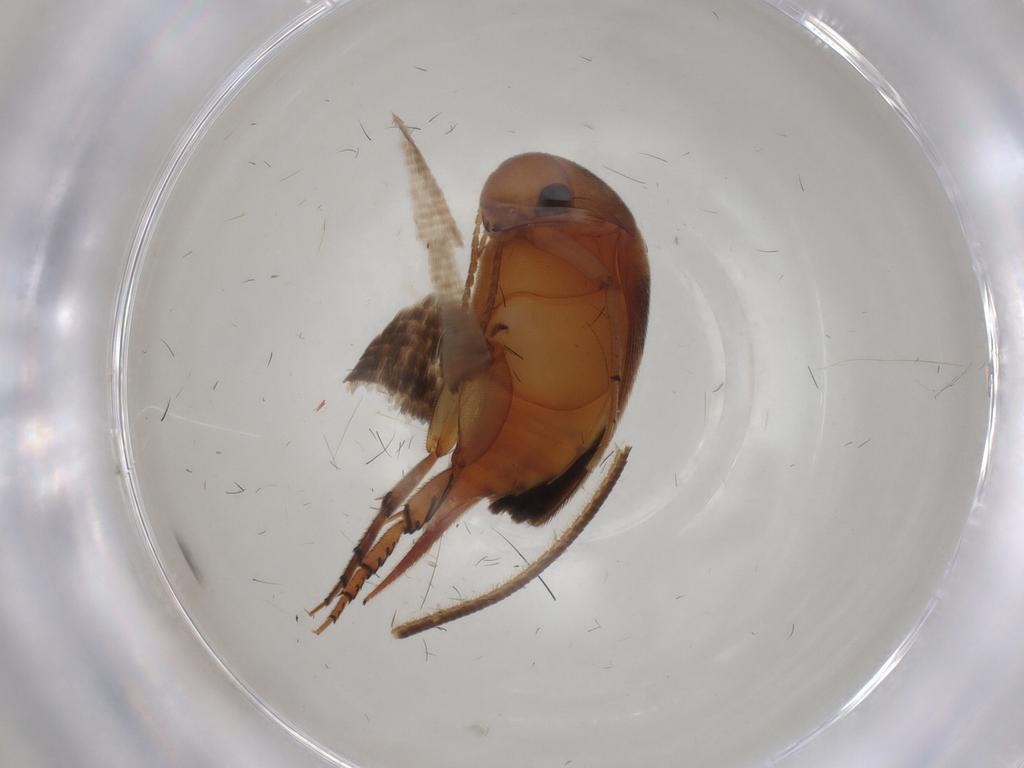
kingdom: Animalia
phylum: Arthropoda
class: Insecta
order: Coleoptera
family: Mordellidae
